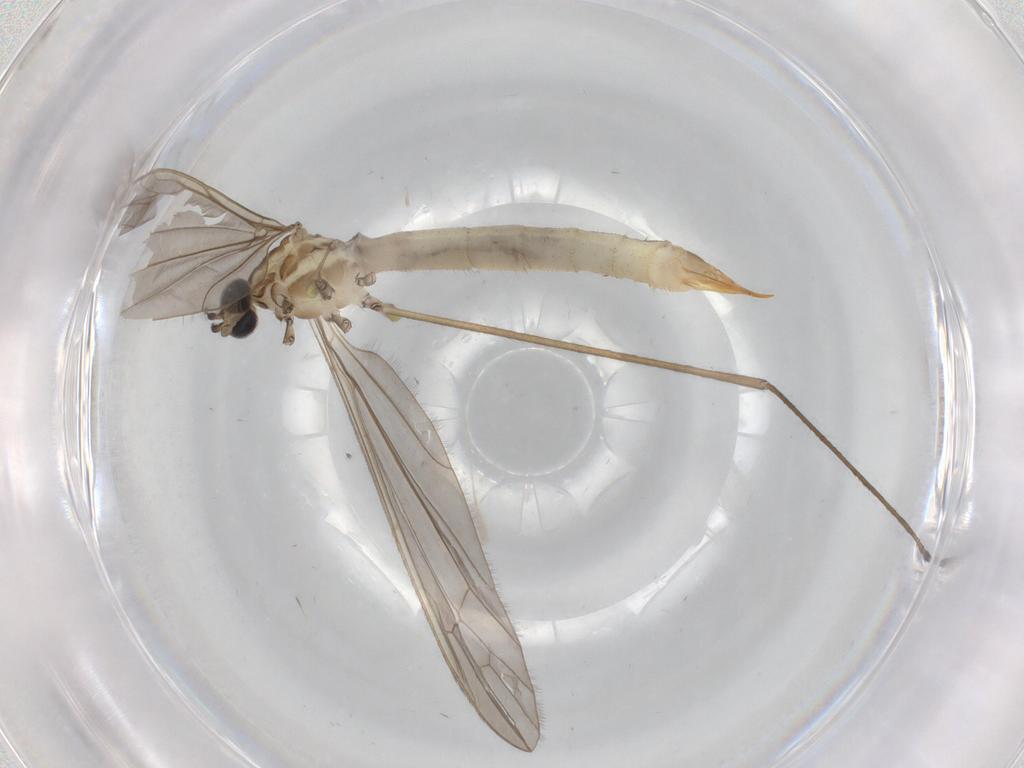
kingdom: Animalia
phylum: Arthropoda
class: Insecta
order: Diptera
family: Limoniidae
